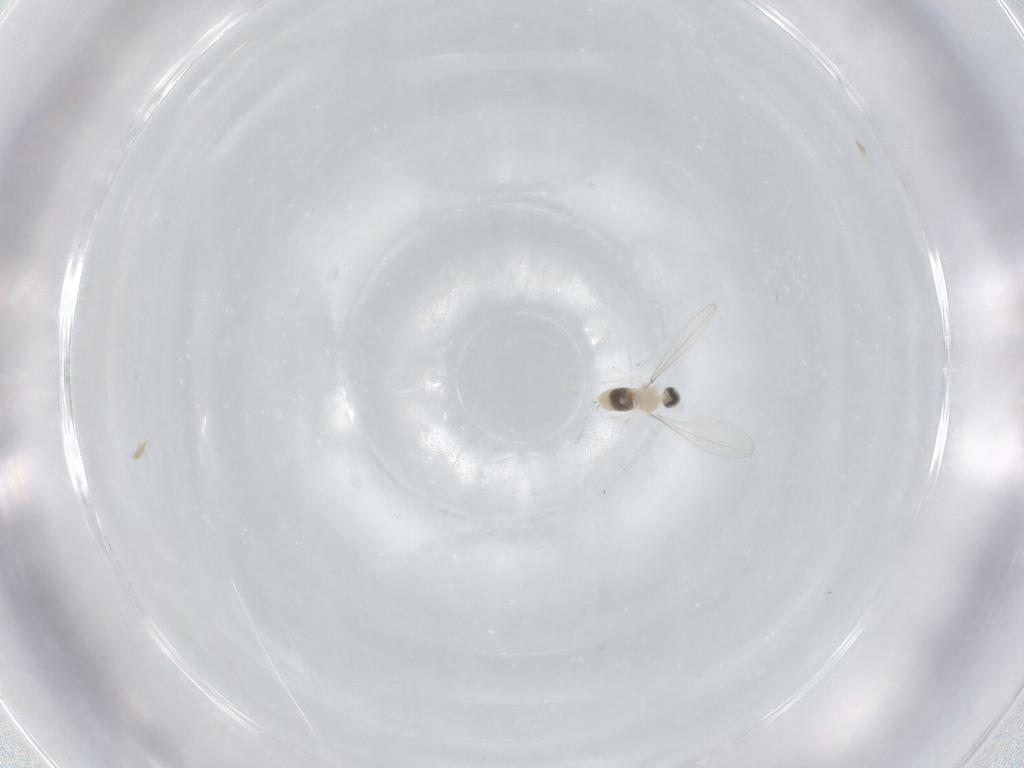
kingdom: Animalia
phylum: Arthropoda
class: Insecta
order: Diptera
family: Cecidomyiidae
